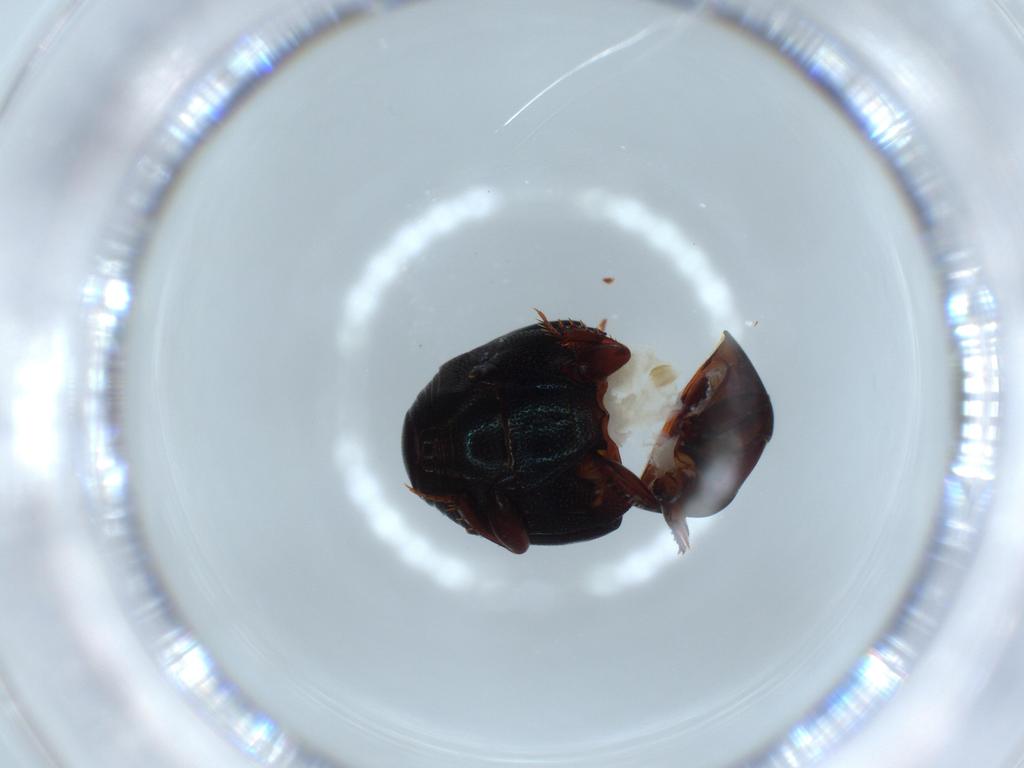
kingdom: Animalia
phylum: Arthropoda
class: Insecta
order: Coleoptera
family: Histeridae
